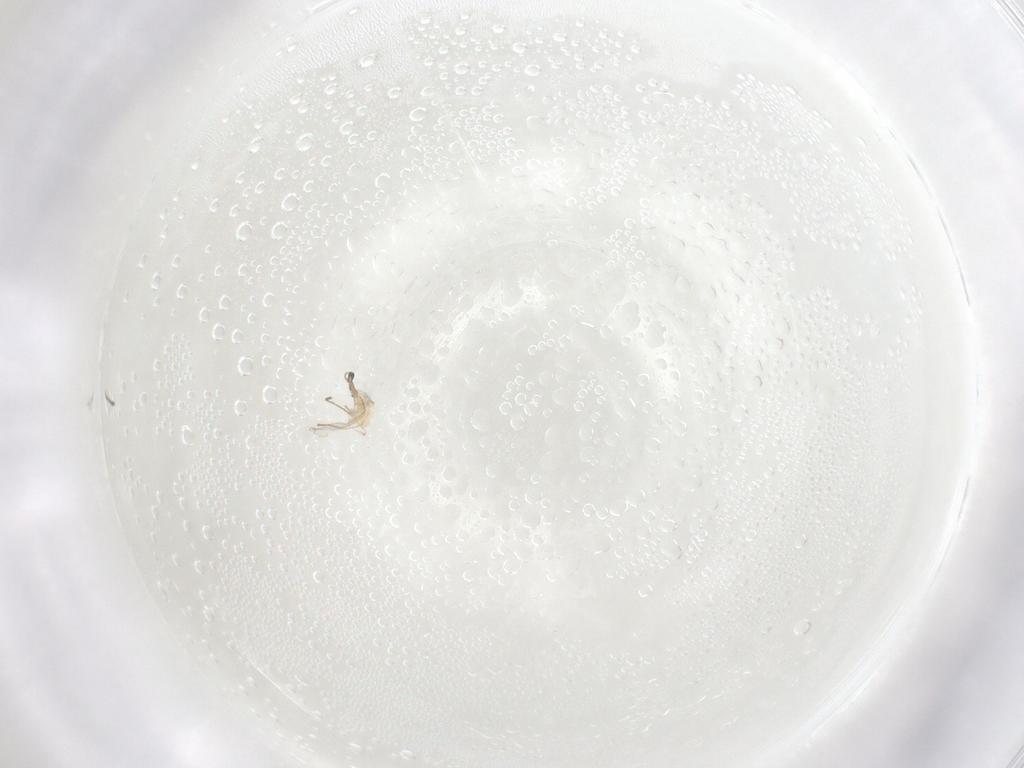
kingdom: Animalia
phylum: Arthropoda
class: Insecta
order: Diptera
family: Cecidomyiidae
